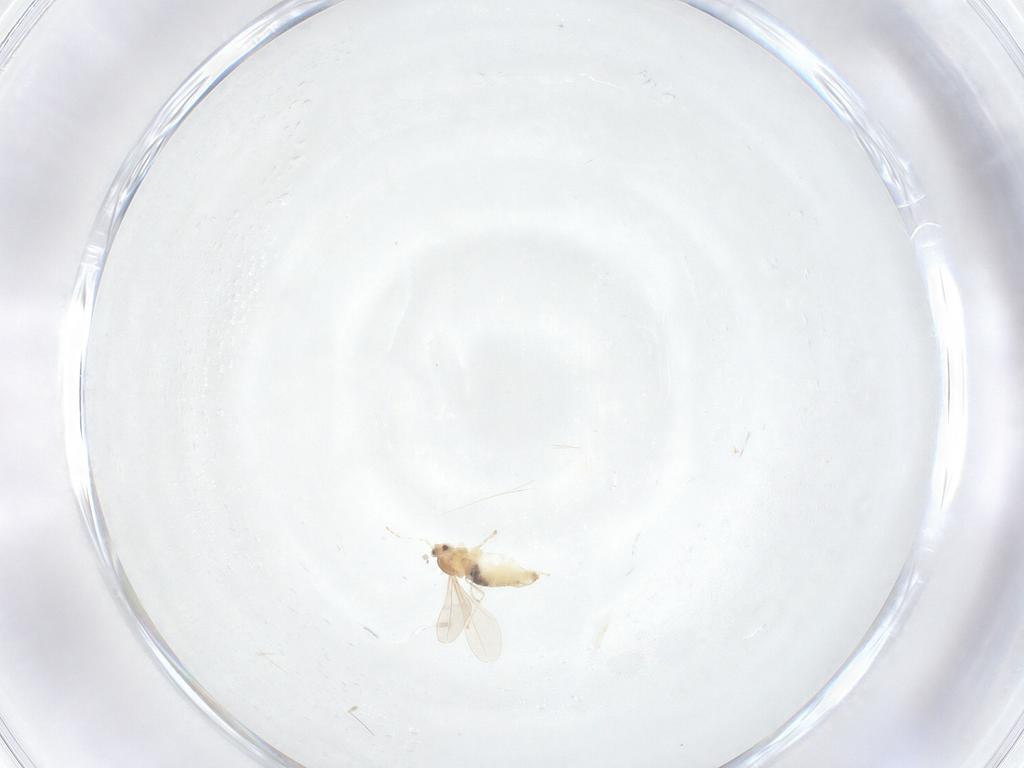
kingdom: Animalia
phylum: Arthropoda
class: Insecta
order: Diptera
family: Cecidomyiidae
